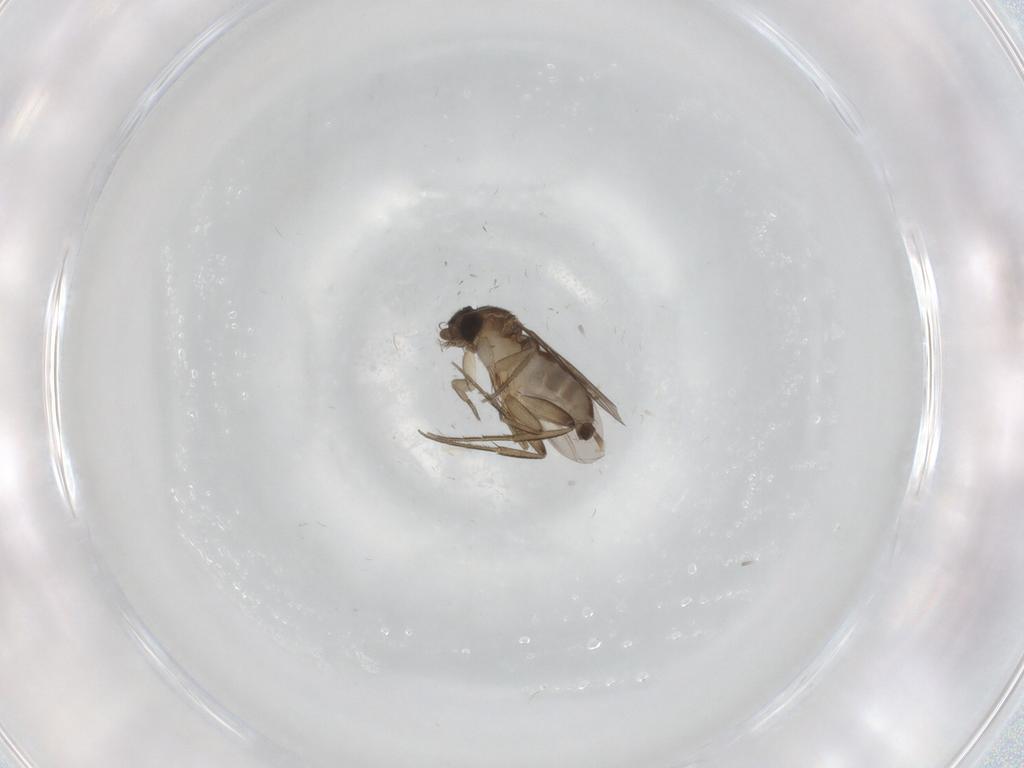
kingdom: Animalia
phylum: Arthropoda
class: Insecta
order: Diptera
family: Phoridae
